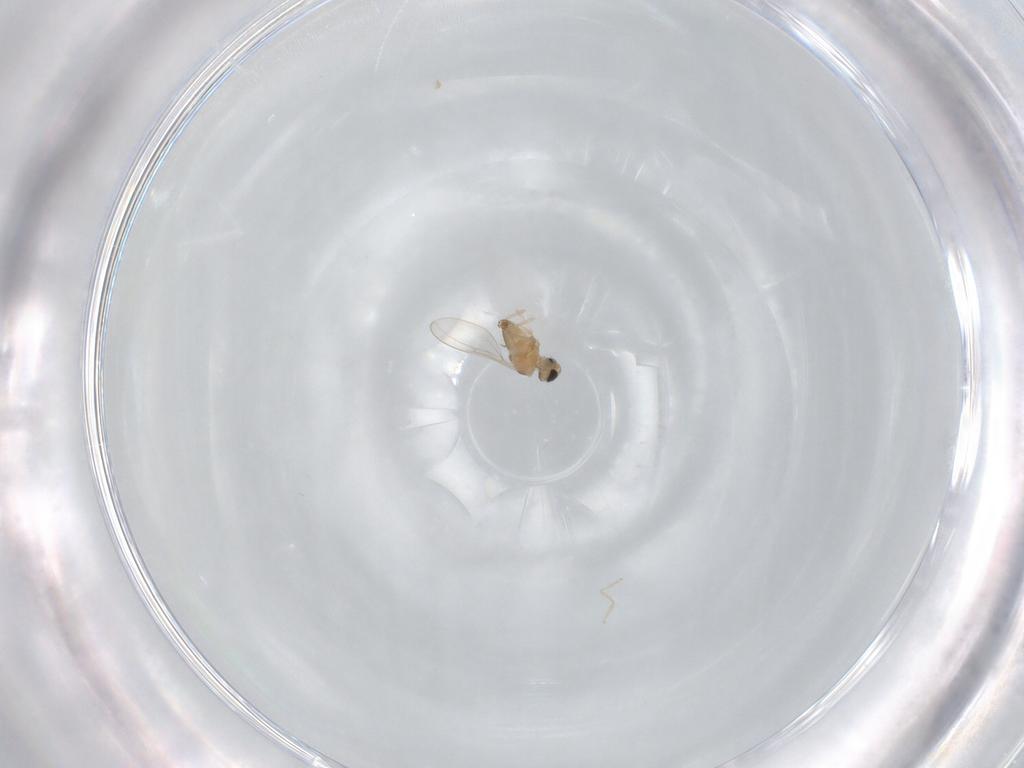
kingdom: Animalia
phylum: Arthropoda
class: Insecta
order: Diptera
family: Cecidomyiidae
